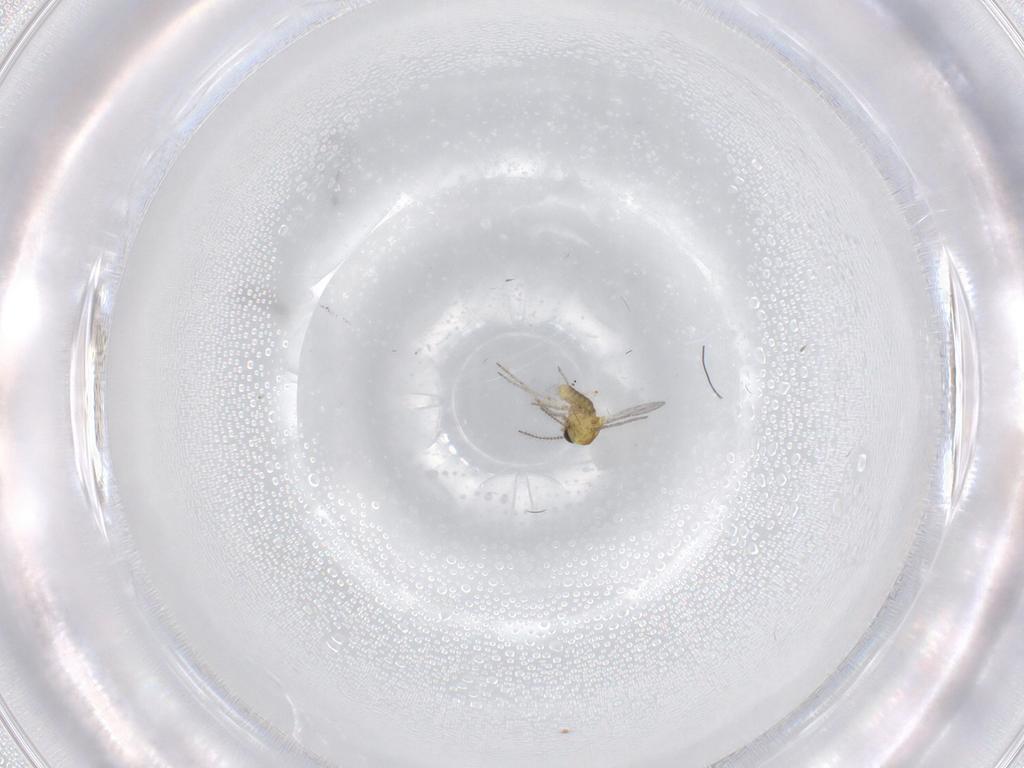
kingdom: Animalia
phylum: Arthropoda
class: Insecta
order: Diptera
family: Ceratopogonidae
